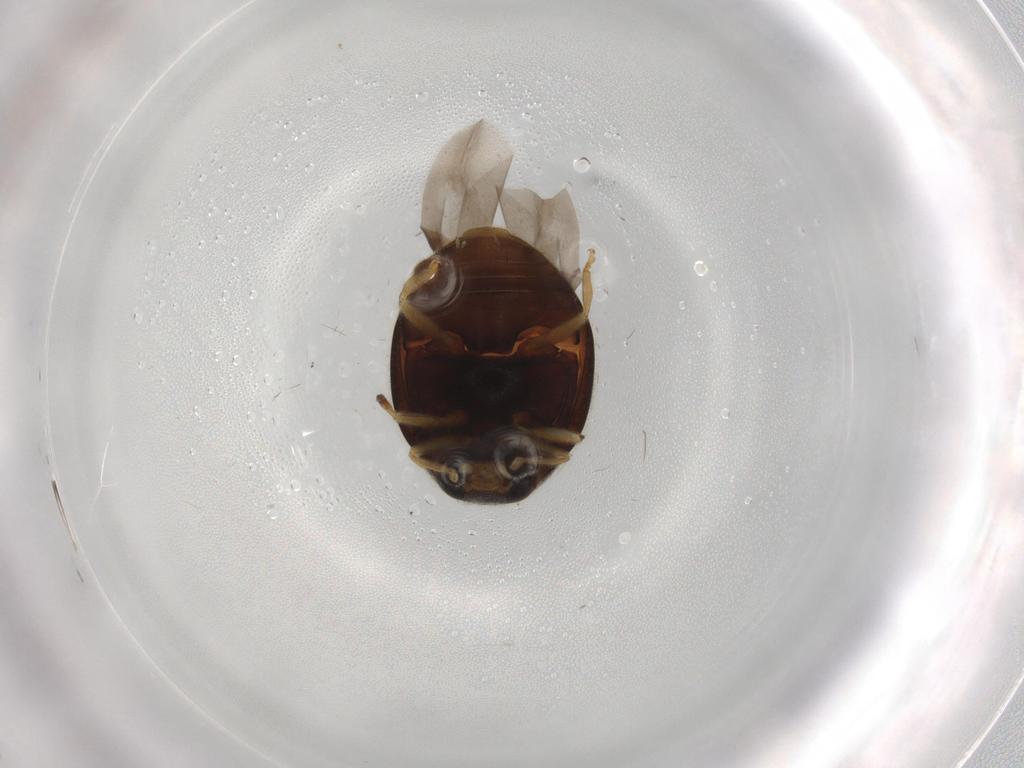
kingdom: Animalia
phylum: Arthropoda
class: Insecta
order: Coleoptera
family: Coccinellidae
